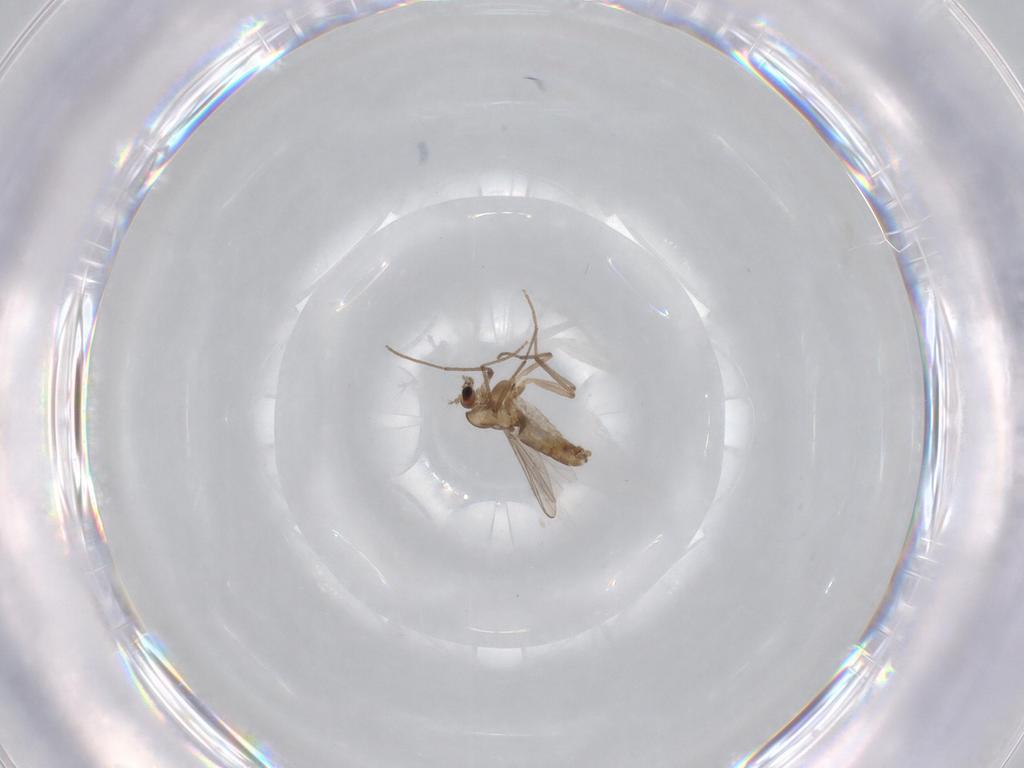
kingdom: Animalia
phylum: Arthropoda
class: Insecta
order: Diptera
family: Chironomidae
